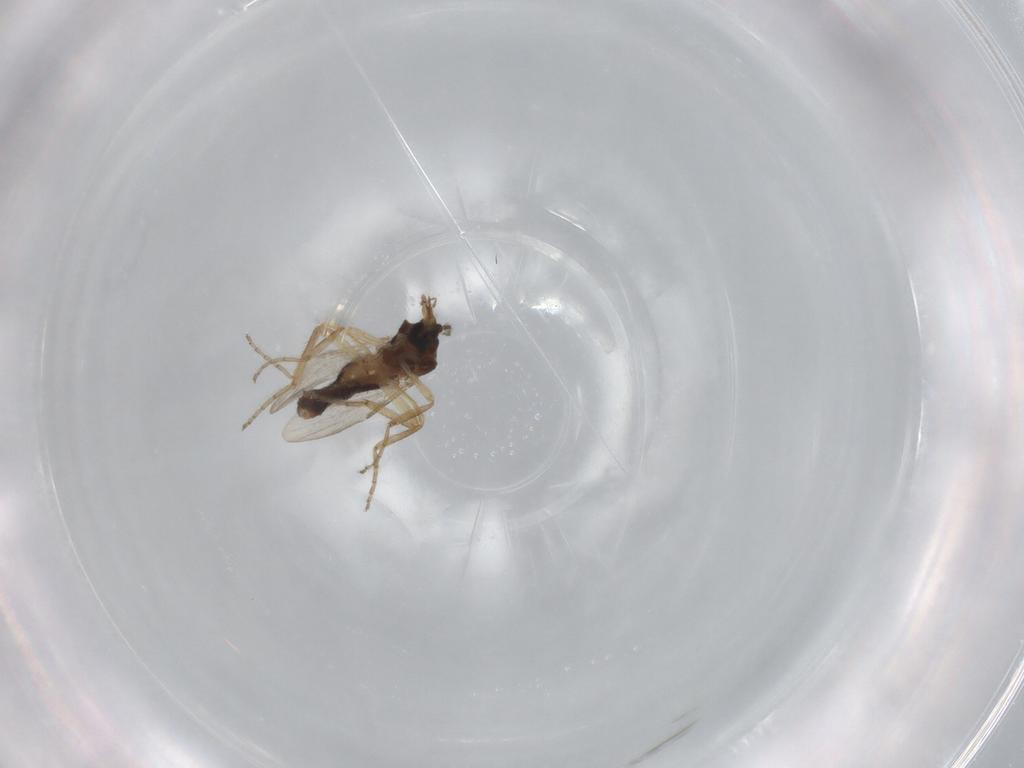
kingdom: Animalia
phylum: Arthropoda
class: Insecta
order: Diptera
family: Ceratopogonidae
